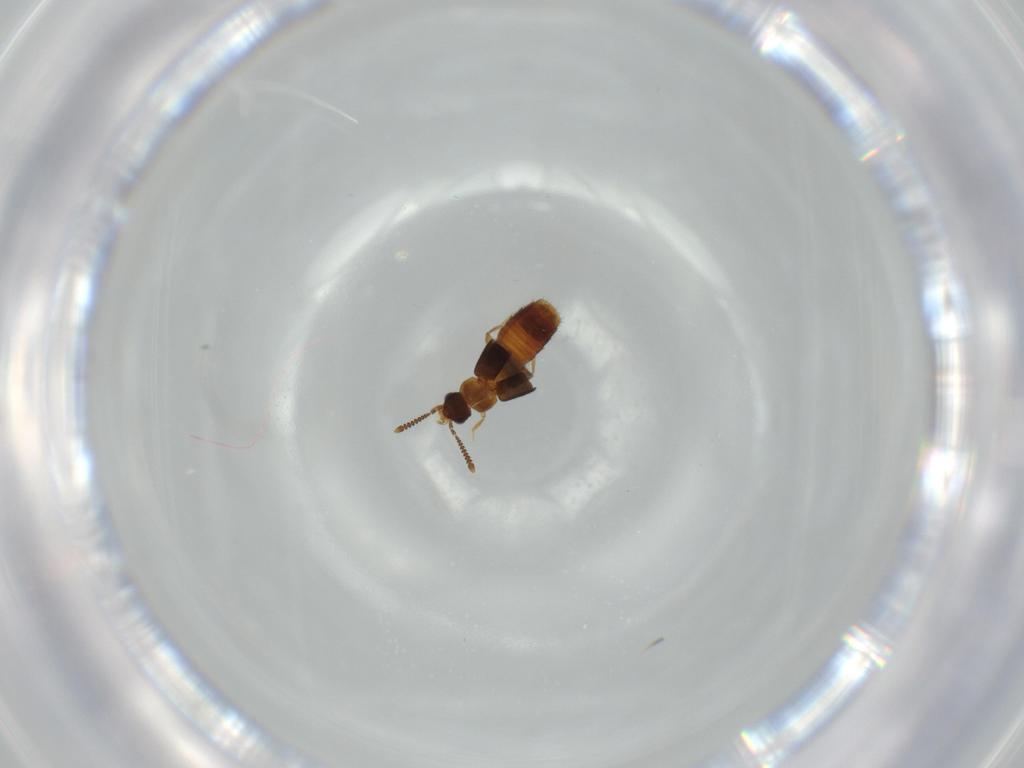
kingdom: Animalia
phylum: Arthropoda
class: Insecta
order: Coleoptera
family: Staphylinidae
